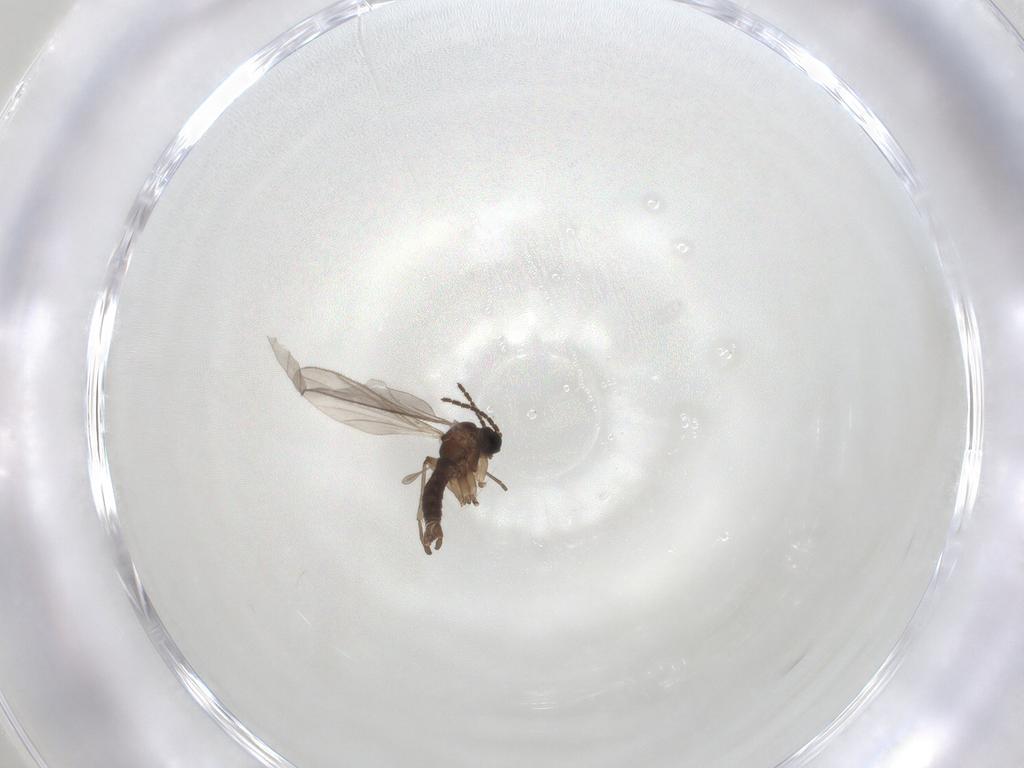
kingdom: Animalia
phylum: Arthropoda
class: Insecta
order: Diptera
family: Sciaridae
